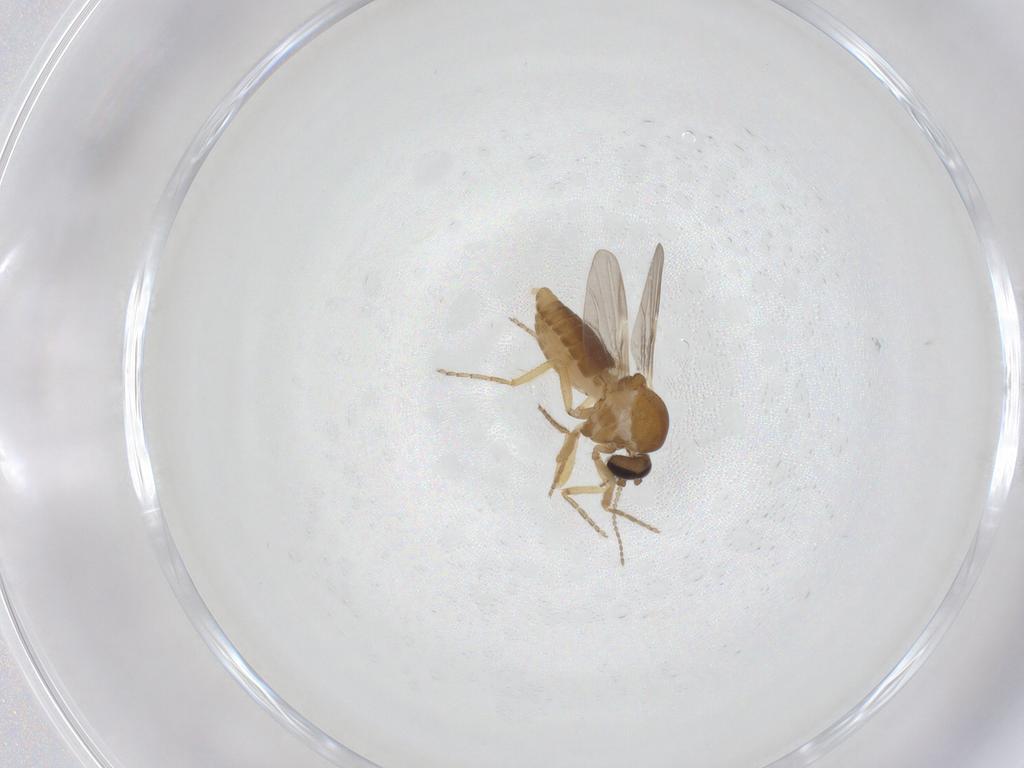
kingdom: Animalia
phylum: Arthropoda
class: Insecta
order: Diptera
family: Ceratopogonidae
